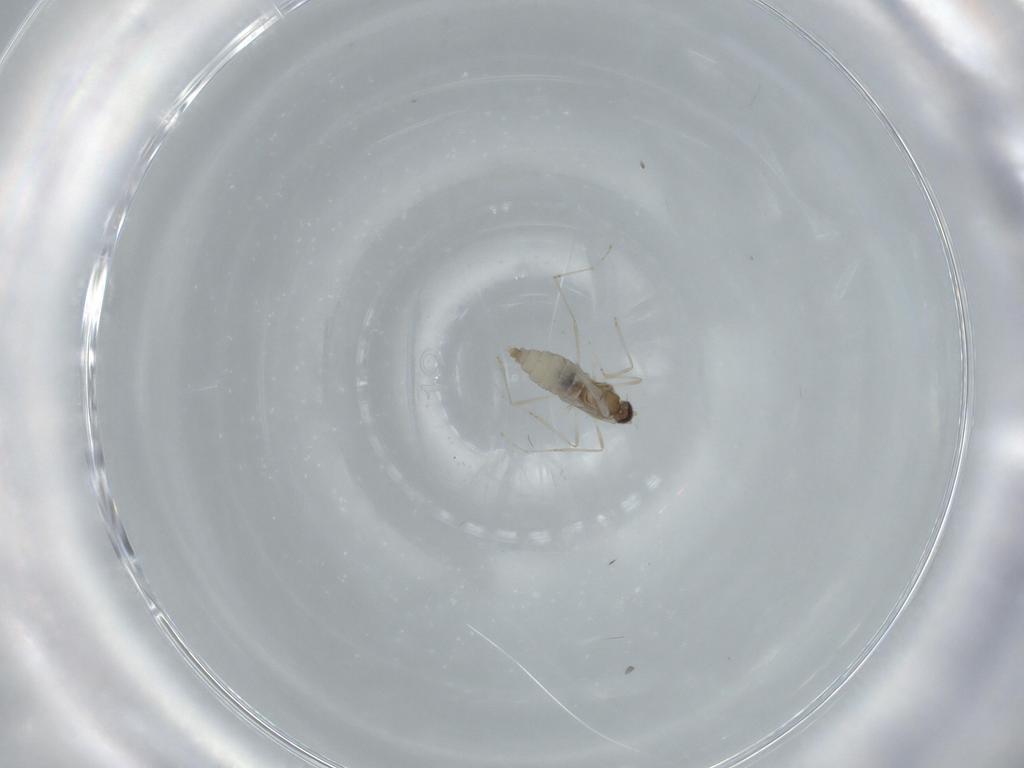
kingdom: Animalia
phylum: Arthropoda
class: Insecta
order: Diptera
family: Cecidomyiidae
